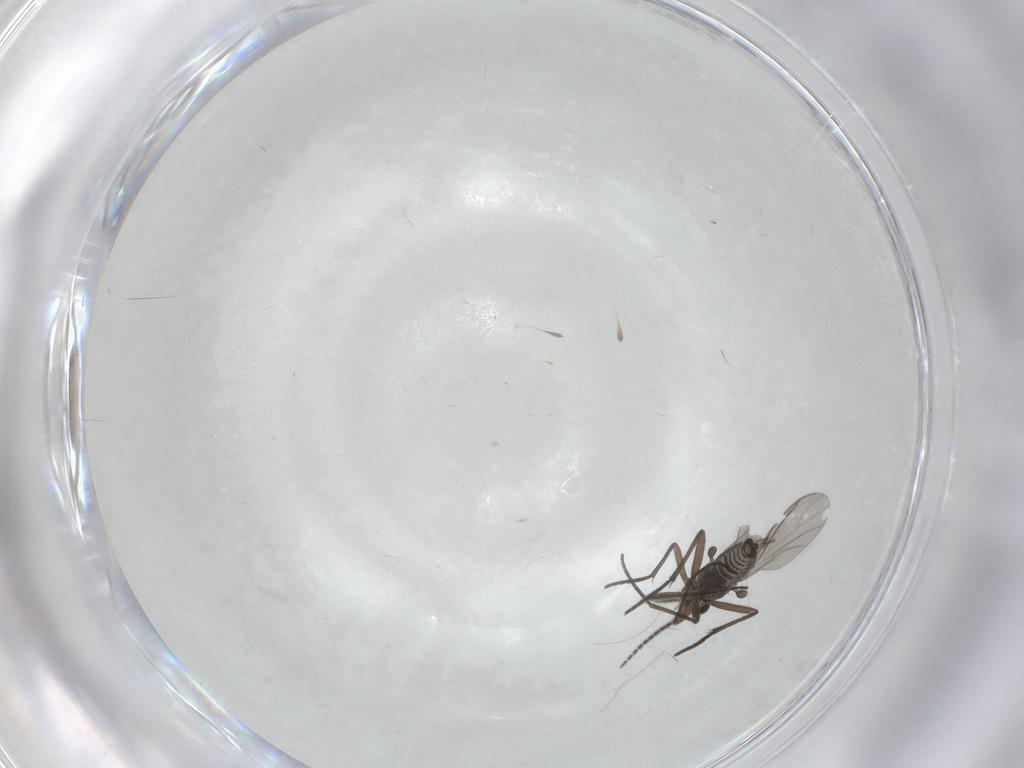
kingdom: Animalia
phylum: Arthropoda
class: Insecta
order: Diptera
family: Sciaridae
